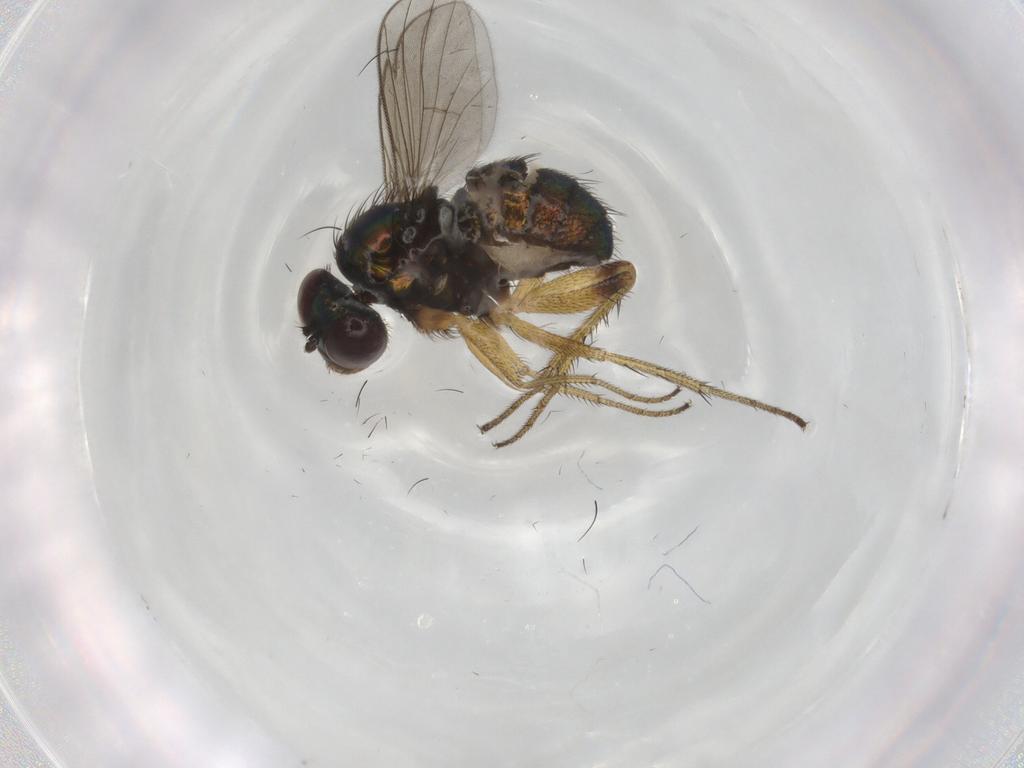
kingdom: Animalia
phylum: Arthropoda
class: Insecta
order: Diptera
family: Dolichopodidae
